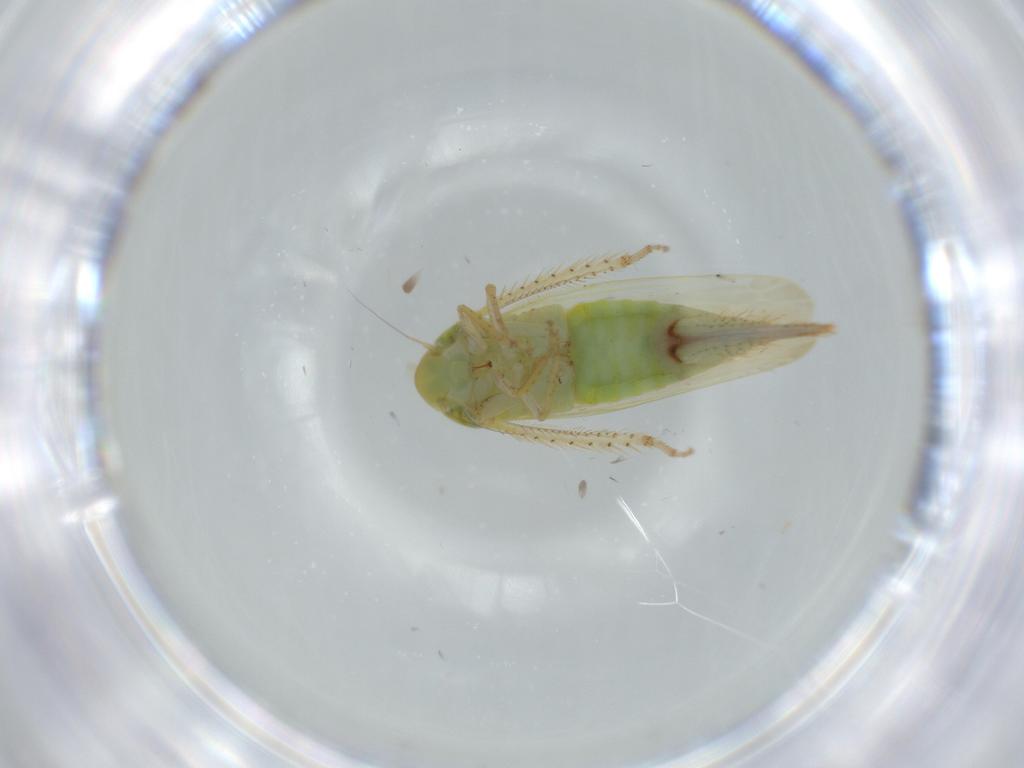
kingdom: Animalia
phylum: Arthropoda
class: Insecta
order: Hemiptera
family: Cicadellidae
